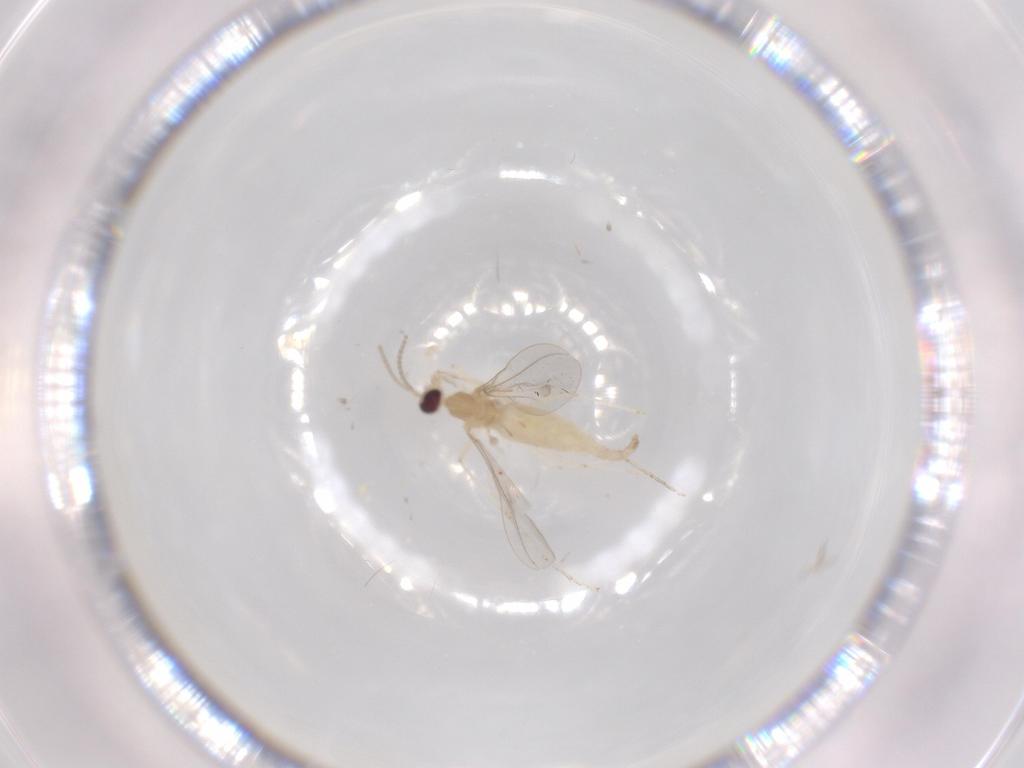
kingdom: Animalia
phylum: Arthropoda
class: Insecta
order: Diptera
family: Cecidomyiidae
